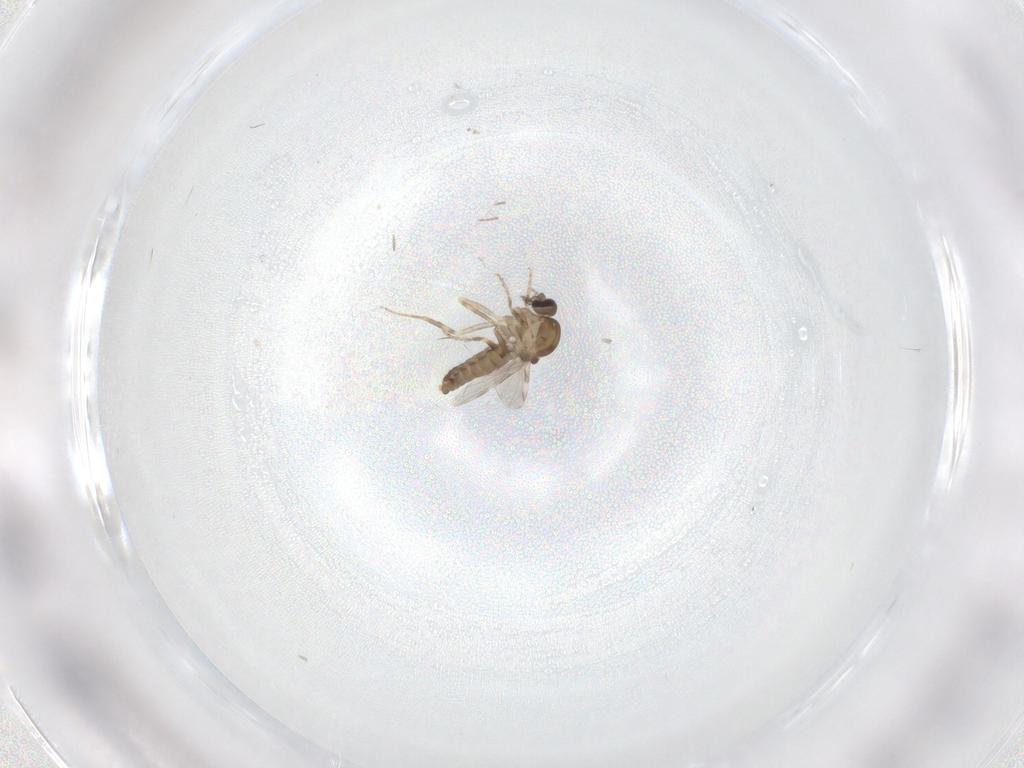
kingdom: Animalia
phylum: Arthropoda
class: Insecta
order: Diptera
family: Ceratopogonidae
